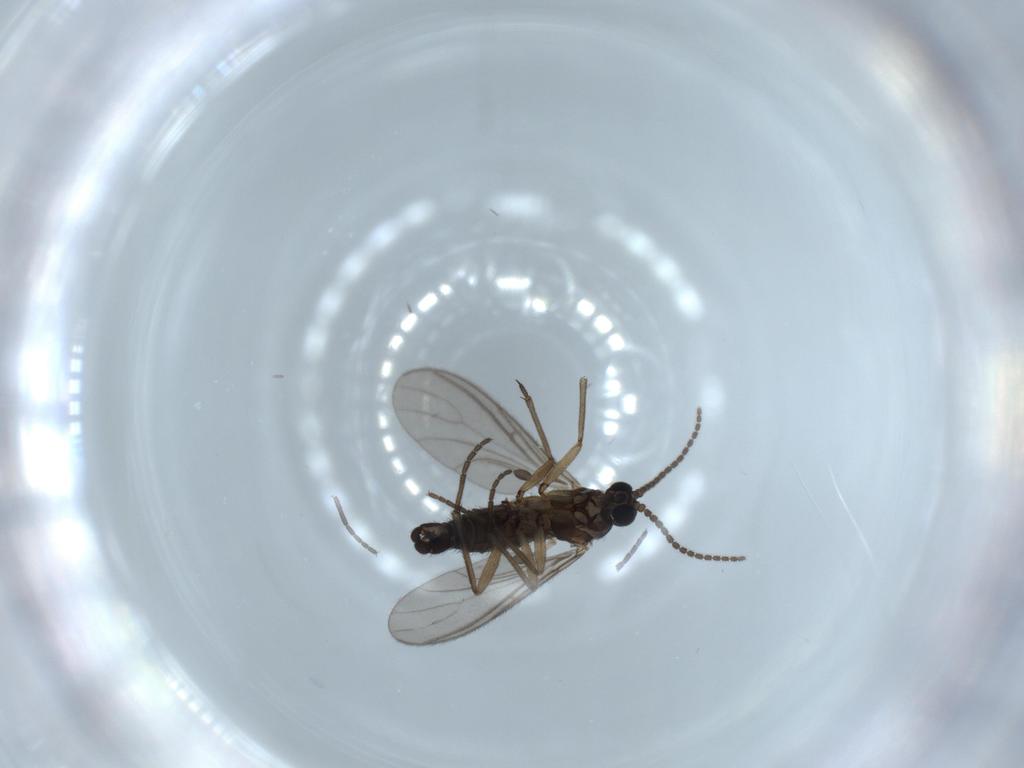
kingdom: Animalia
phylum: Arthropoda
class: Insecta
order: Diptera
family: Sciaridae
